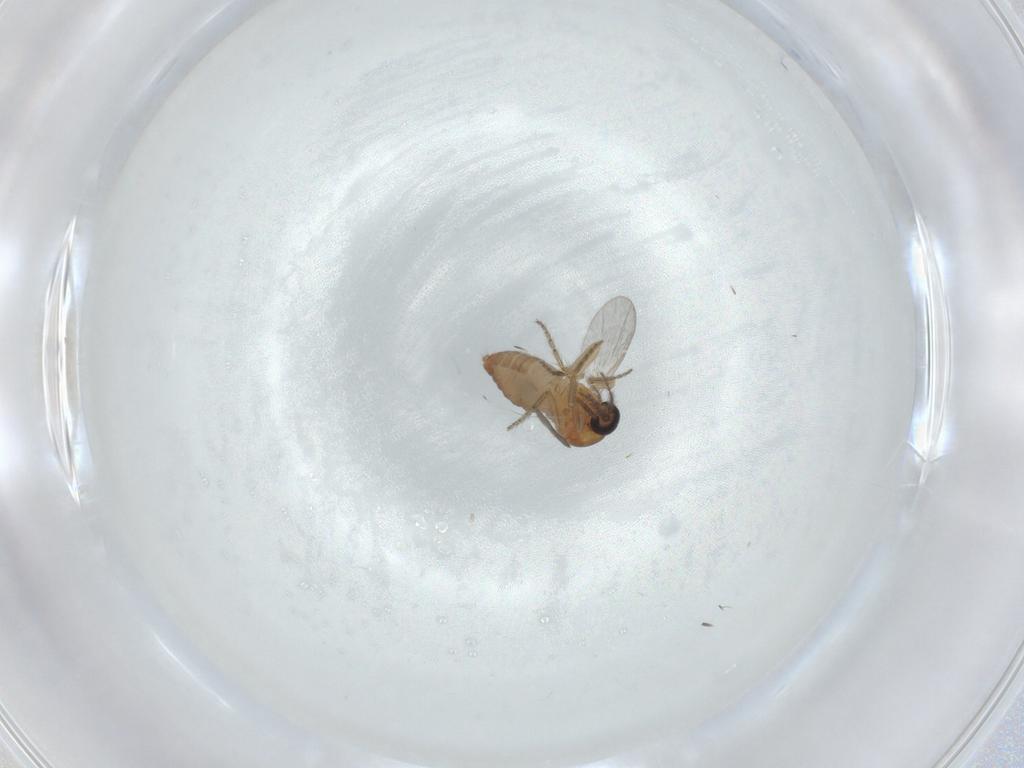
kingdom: Animalia
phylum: Arthropoda
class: Insecta
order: Diptera
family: Ceratopogonidae
